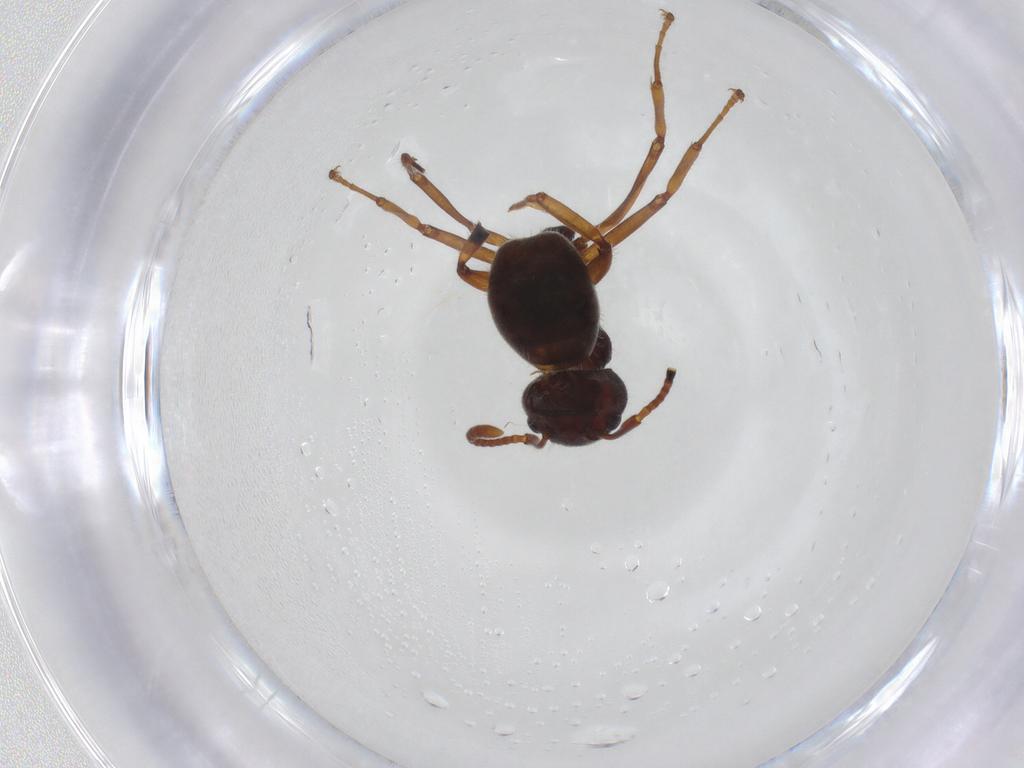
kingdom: Animalia
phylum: Arthropoda
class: Insecta
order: Hymenoptera
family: Formicidae
